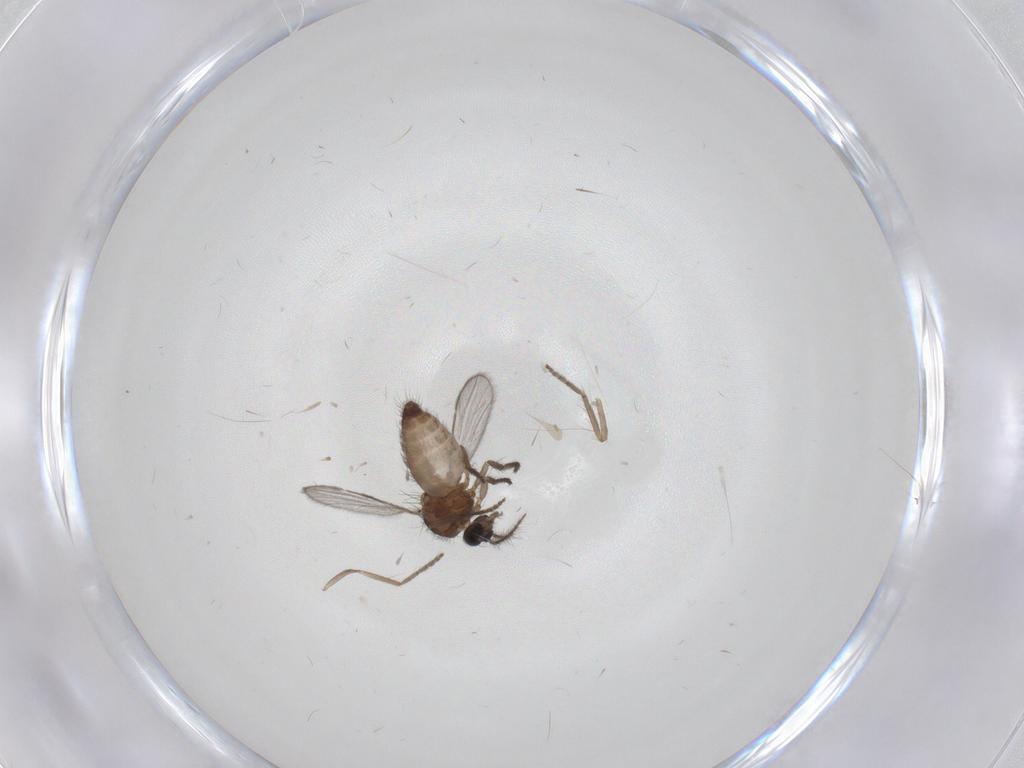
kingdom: Animalia
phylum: Arthropoda
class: Insecta
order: Diptera
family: Ceratopogonidae
